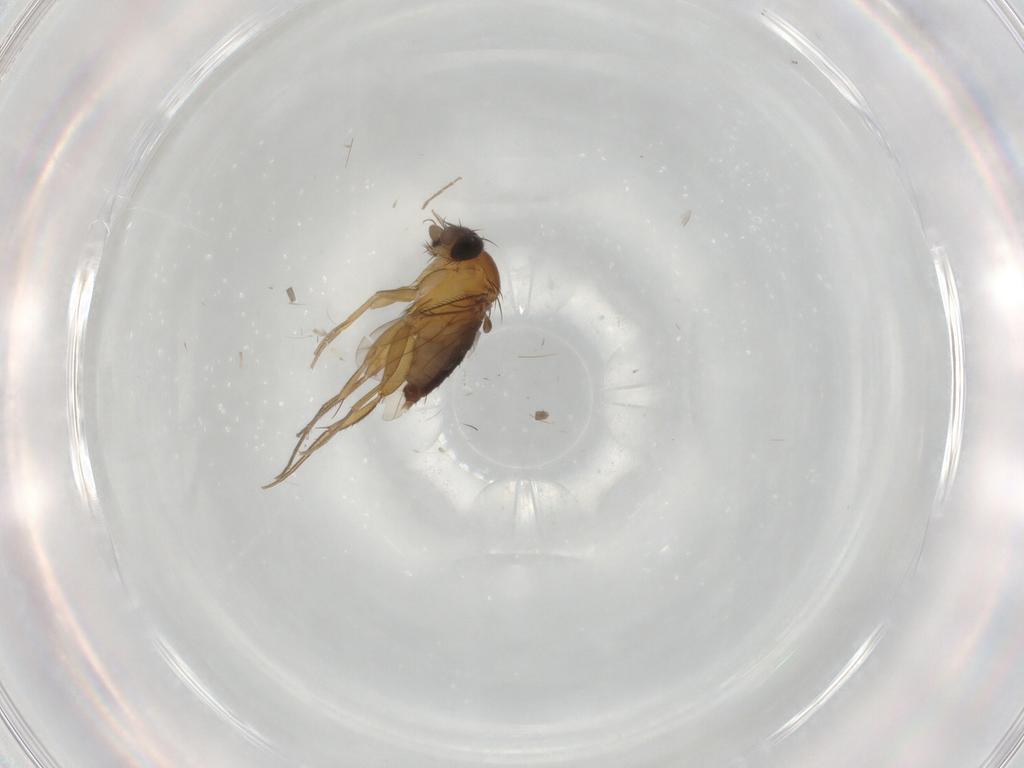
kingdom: Animalia
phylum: Arthropoda
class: Insecta
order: Diptera
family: Phoridae
